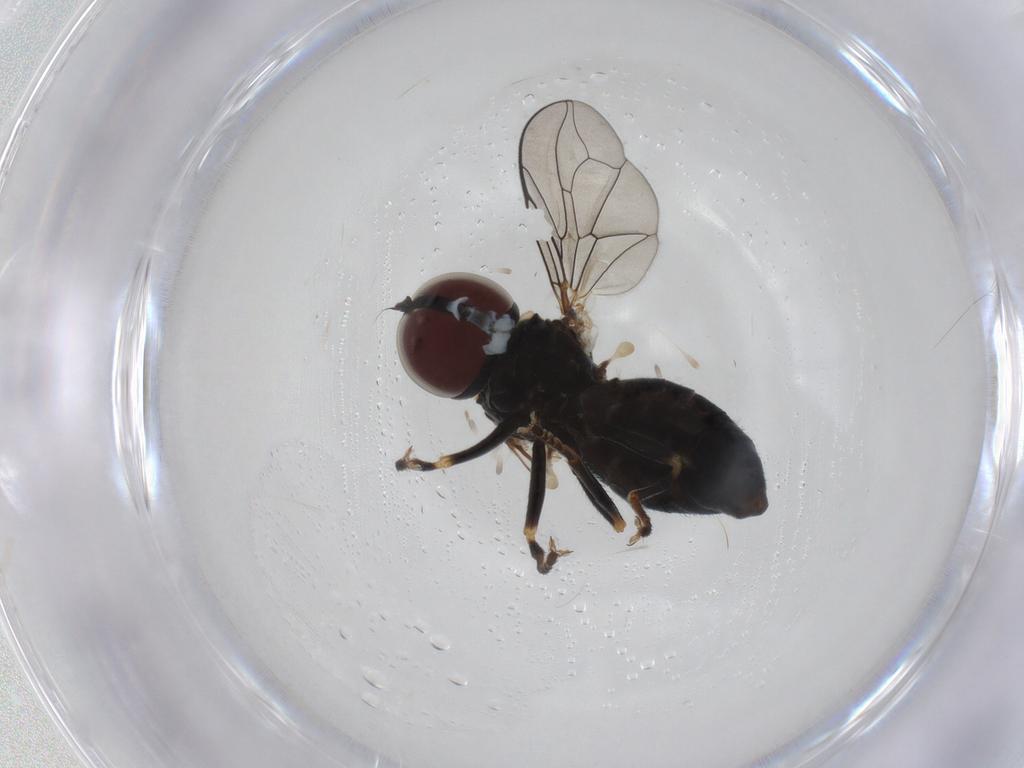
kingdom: Animalia
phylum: Arthropoda
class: Insecta
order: Diptera
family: Pipunculidae
